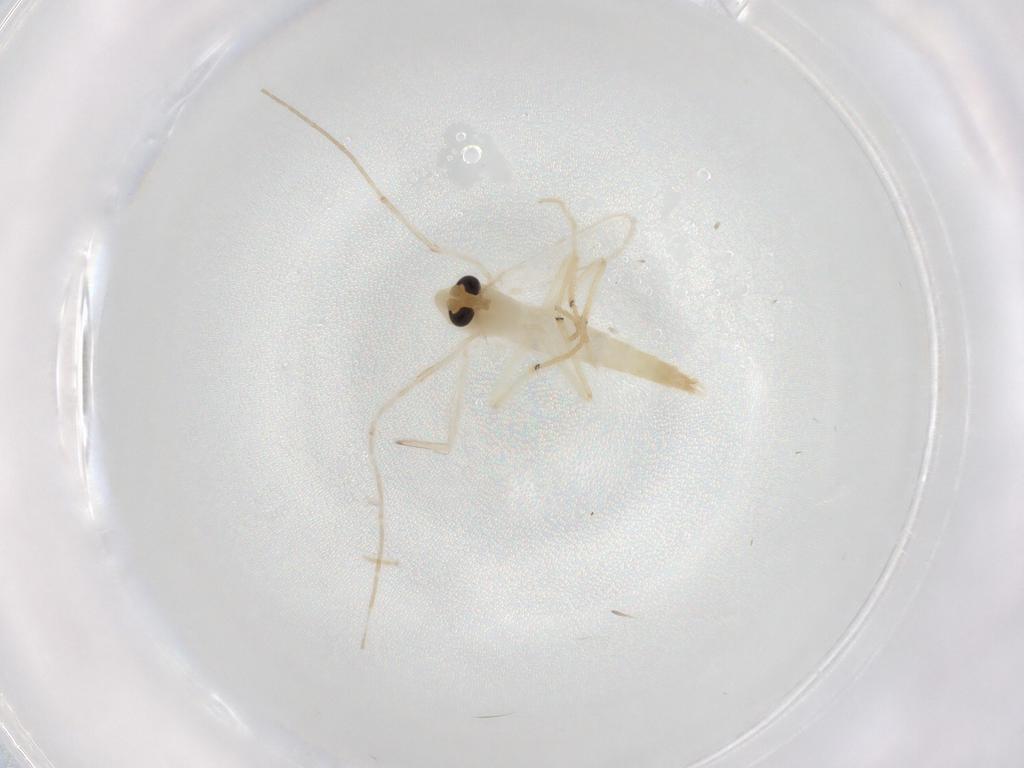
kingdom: Animalia
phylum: Arthropoda
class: Insecta
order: Diptera
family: Chironomidae
